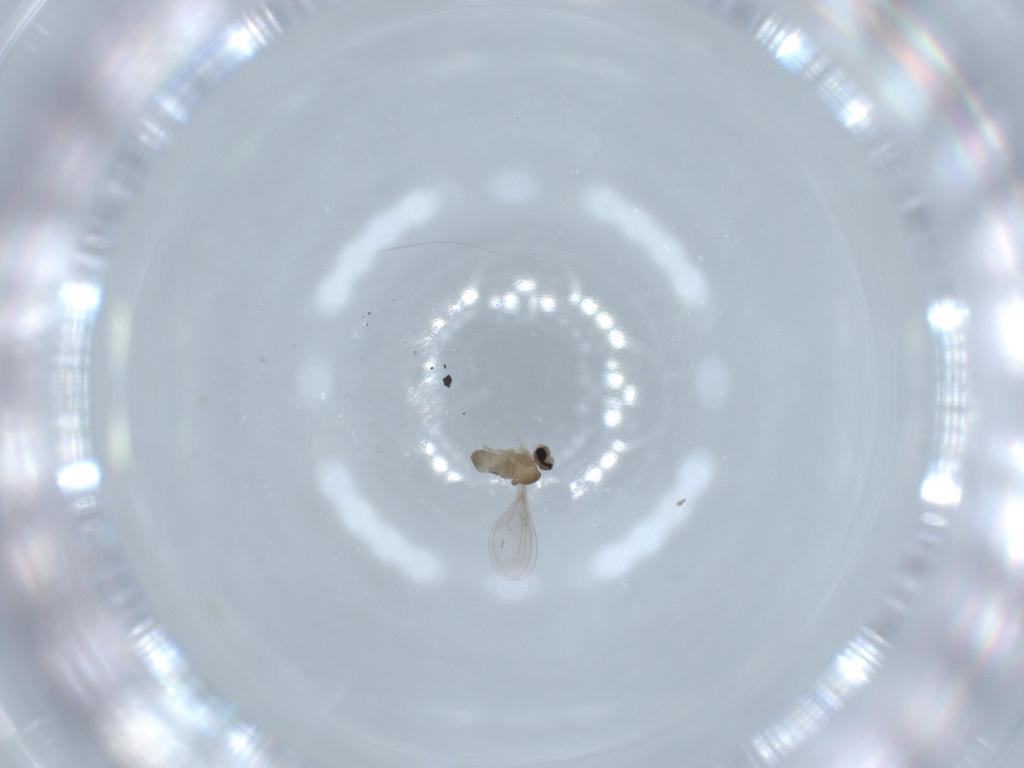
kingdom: Animalia
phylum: Arthropoda
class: Insecta
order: Diptera
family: Cecidomyiidae
